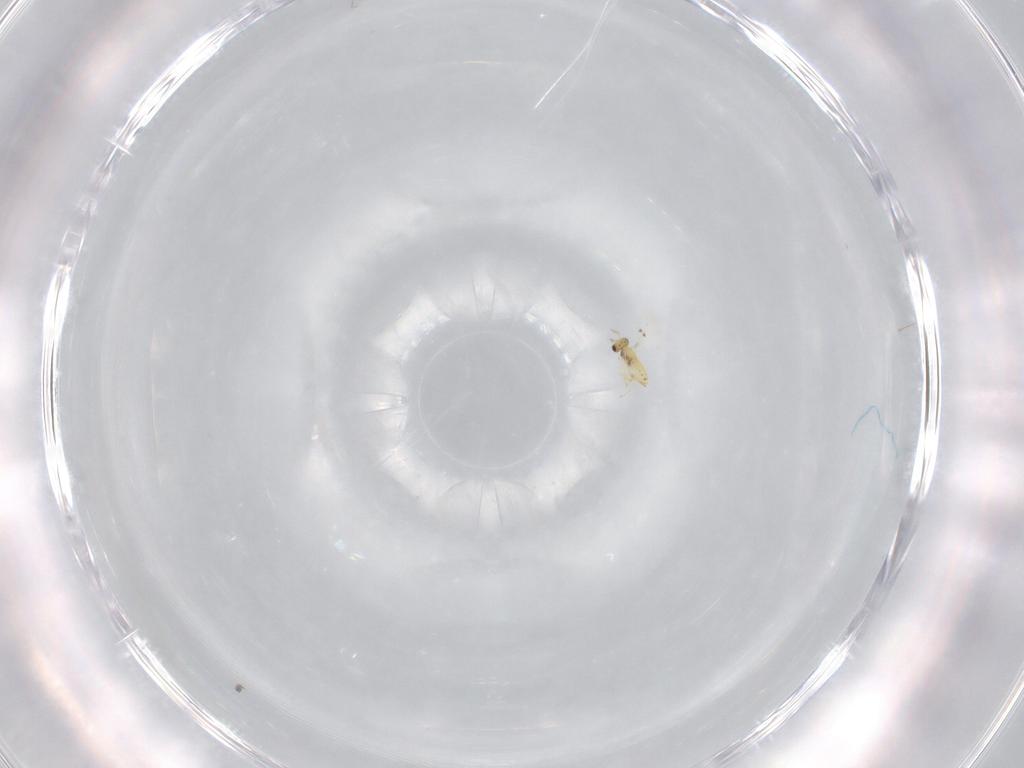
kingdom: Animalia
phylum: Arthropoda
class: Insecta
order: Hymenoptera
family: Trichogrammatidae
